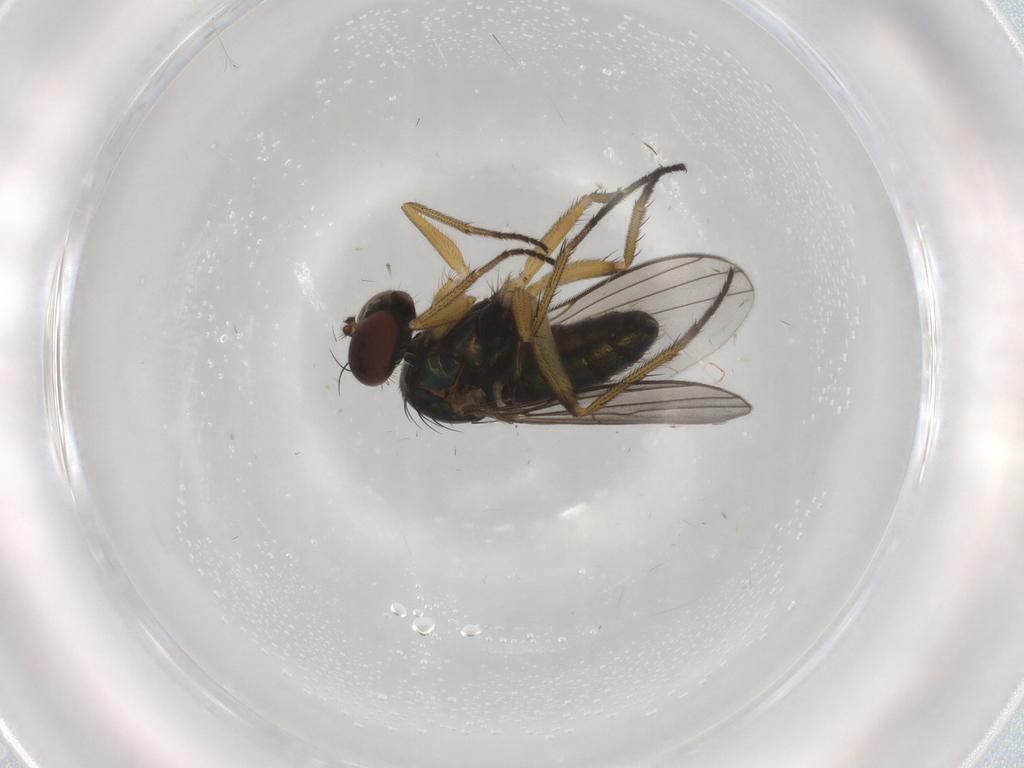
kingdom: Animalia
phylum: Arthropoda
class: Insecta
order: Diptera
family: Dolichopodidae
